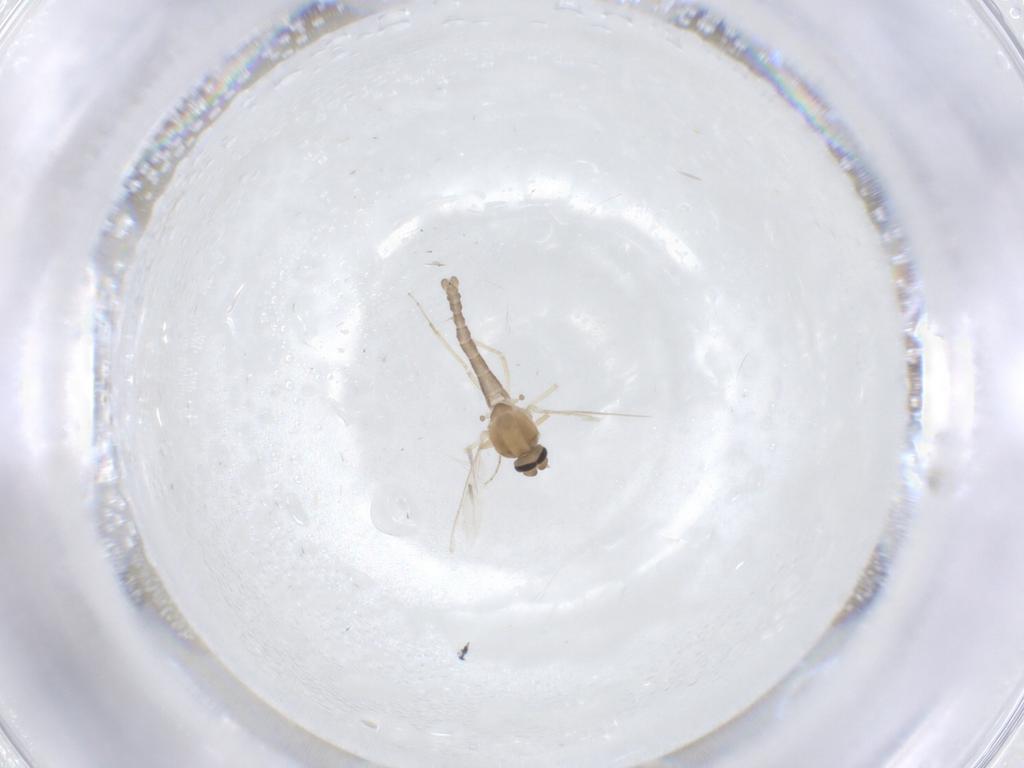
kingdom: Animalia
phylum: Arthropoda
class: Insecta
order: Diptera
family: Ceratopogonidae
